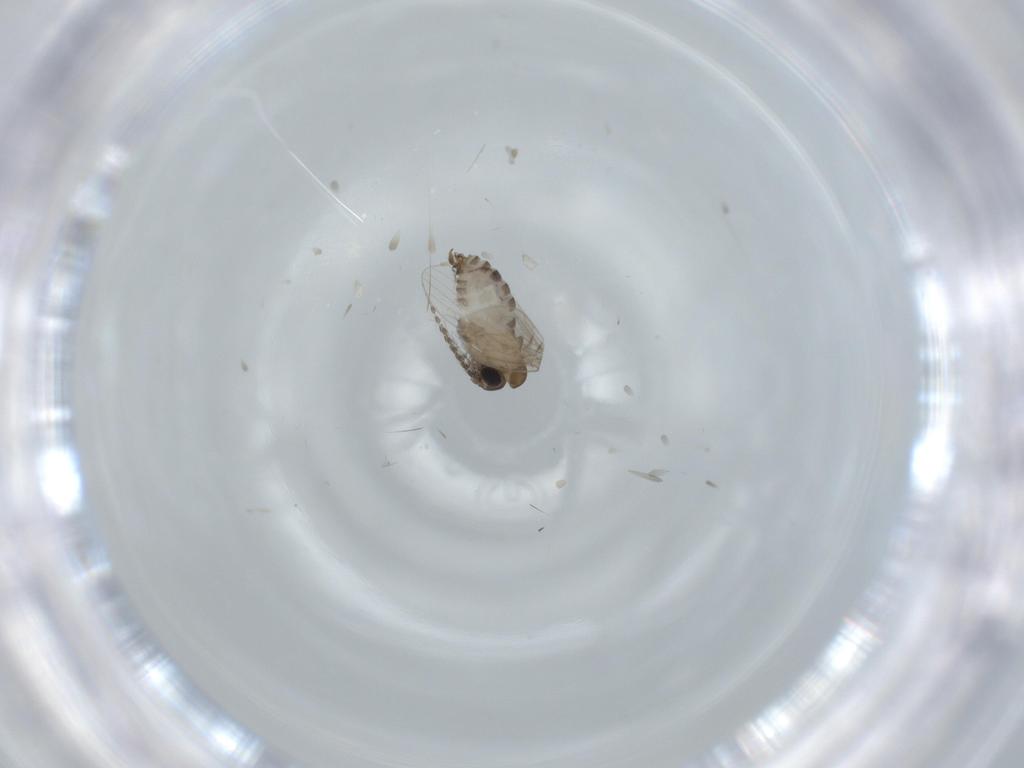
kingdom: Animalia
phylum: Arthropoda
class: Insecta
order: Diptera
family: Psychodidae
